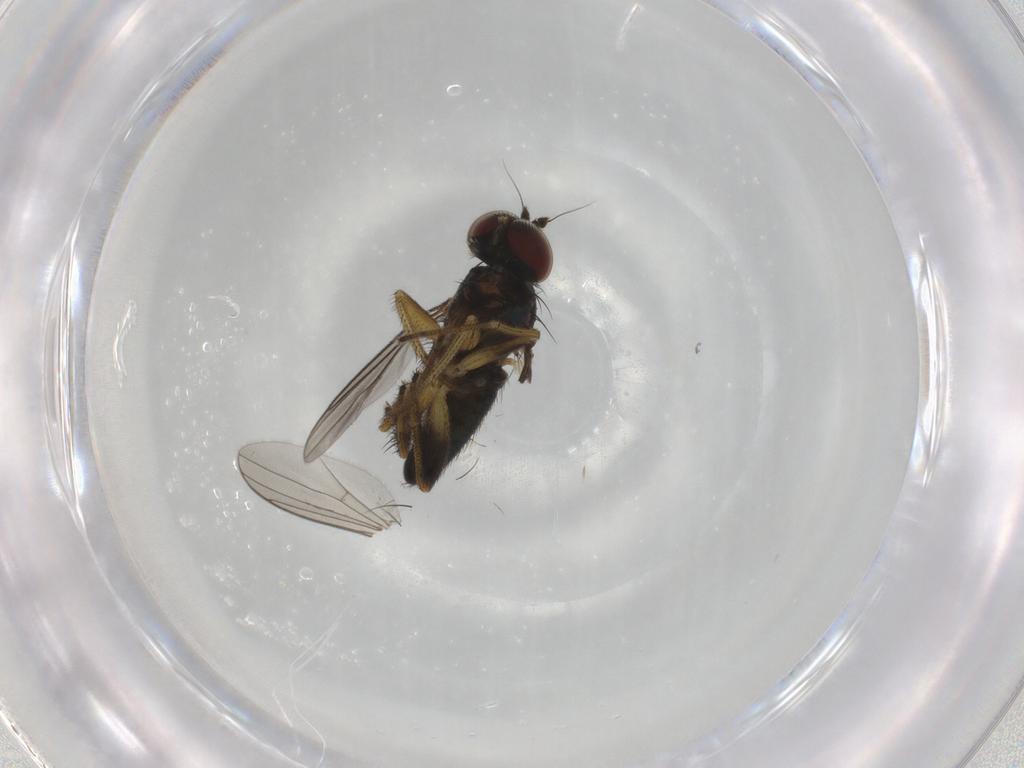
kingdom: Animalia
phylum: Arthropoda
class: Insecta
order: Diptera
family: Dolichopodidae
